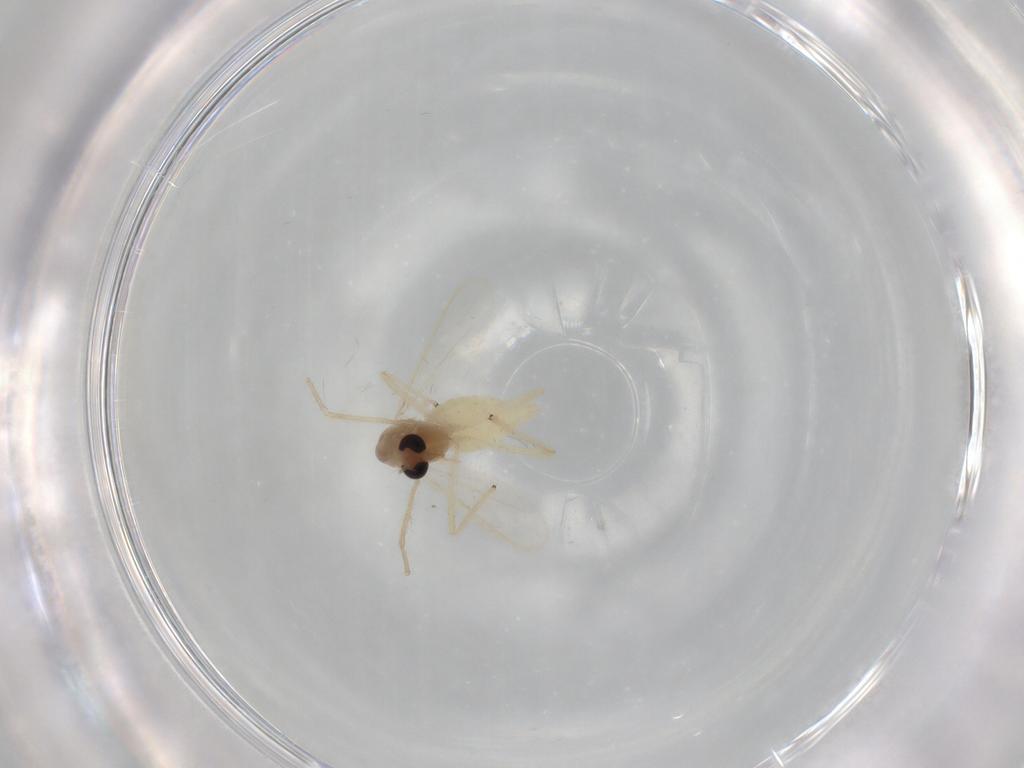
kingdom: Animalia
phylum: Arthropoda
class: Insecta
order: Diptera
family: Chironomidae
